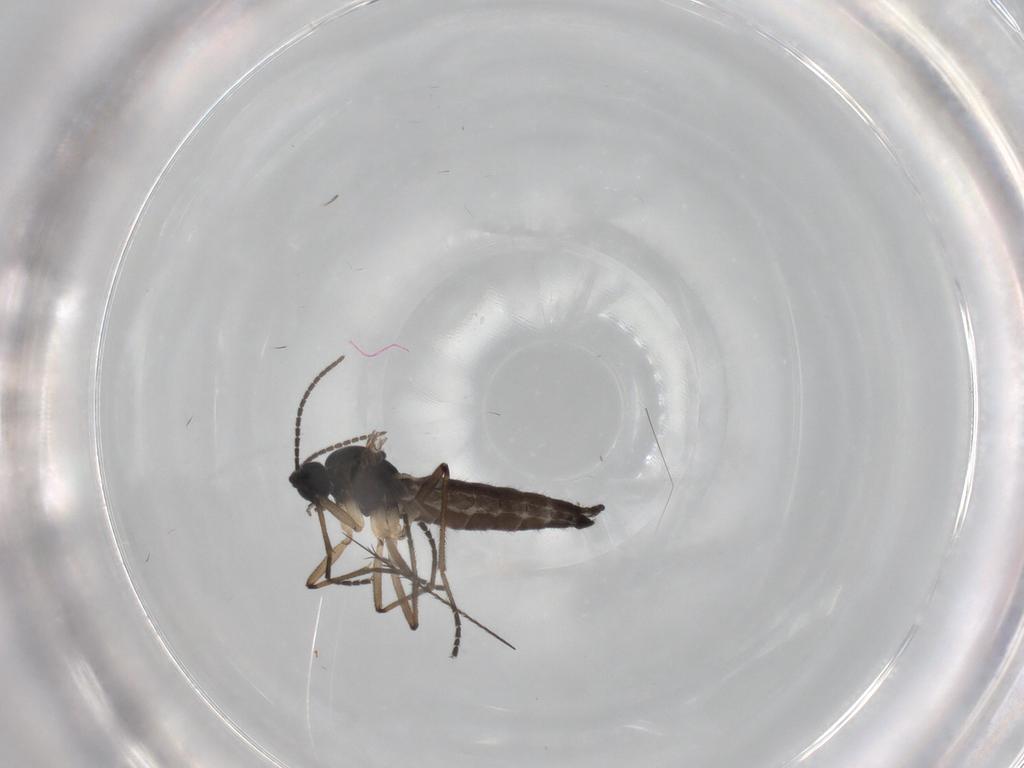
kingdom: Animalia
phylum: Arthropoda
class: Insecta
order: Diptera
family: Sciaridae
